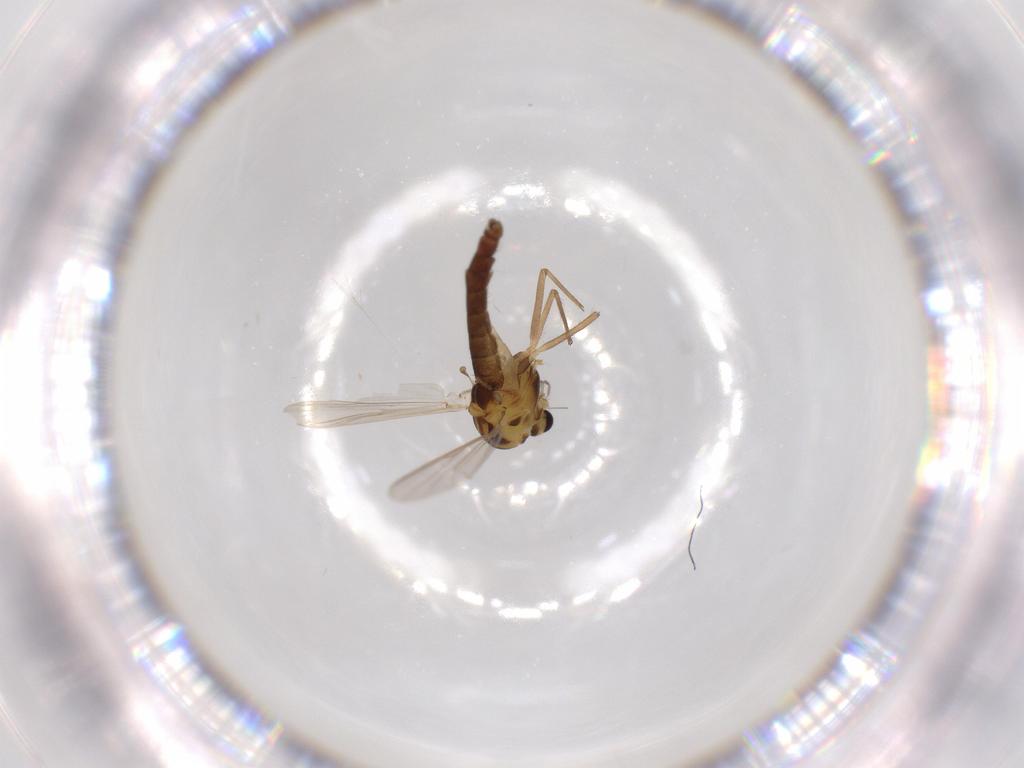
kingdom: Animalia
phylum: Arthropoda
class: Insecta
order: Diptera
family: Chironomidae
